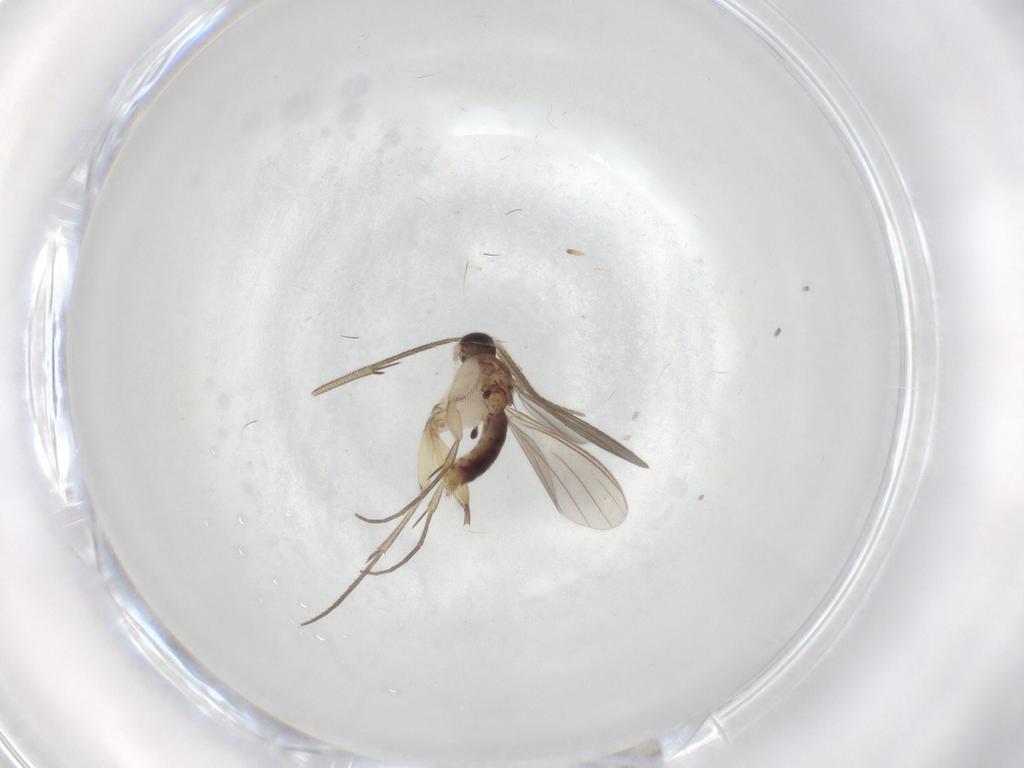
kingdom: Animalia
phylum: Arthropoda
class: Insecta
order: Diptera
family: Mycetophilidae
